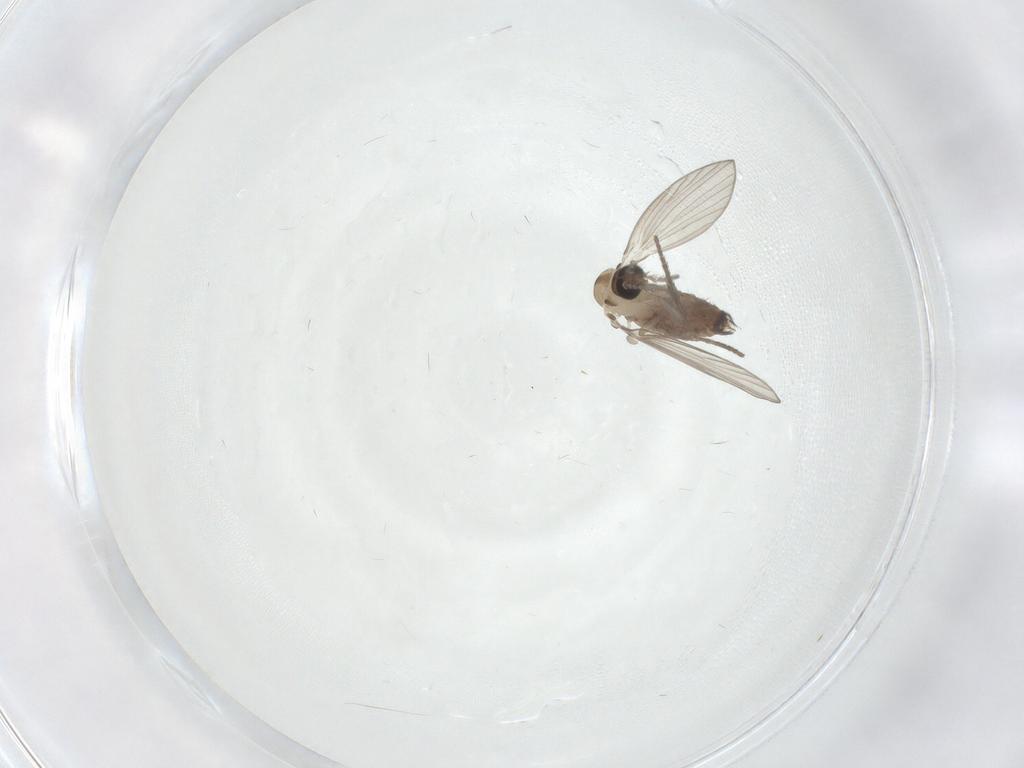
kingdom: Animalia
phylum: Arthropoda
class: Insecta
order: Diptera
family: Psychodidae
